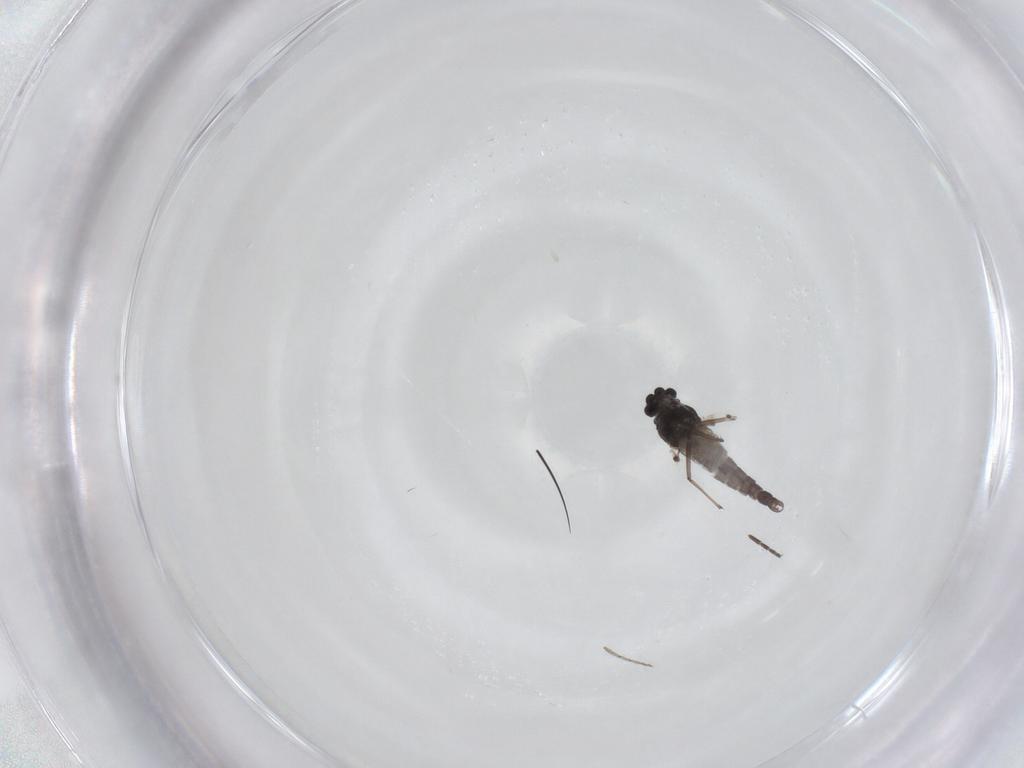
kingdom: Animalia
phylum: Arthropoda
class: Insecta
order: Diptera
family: Chironomidae
